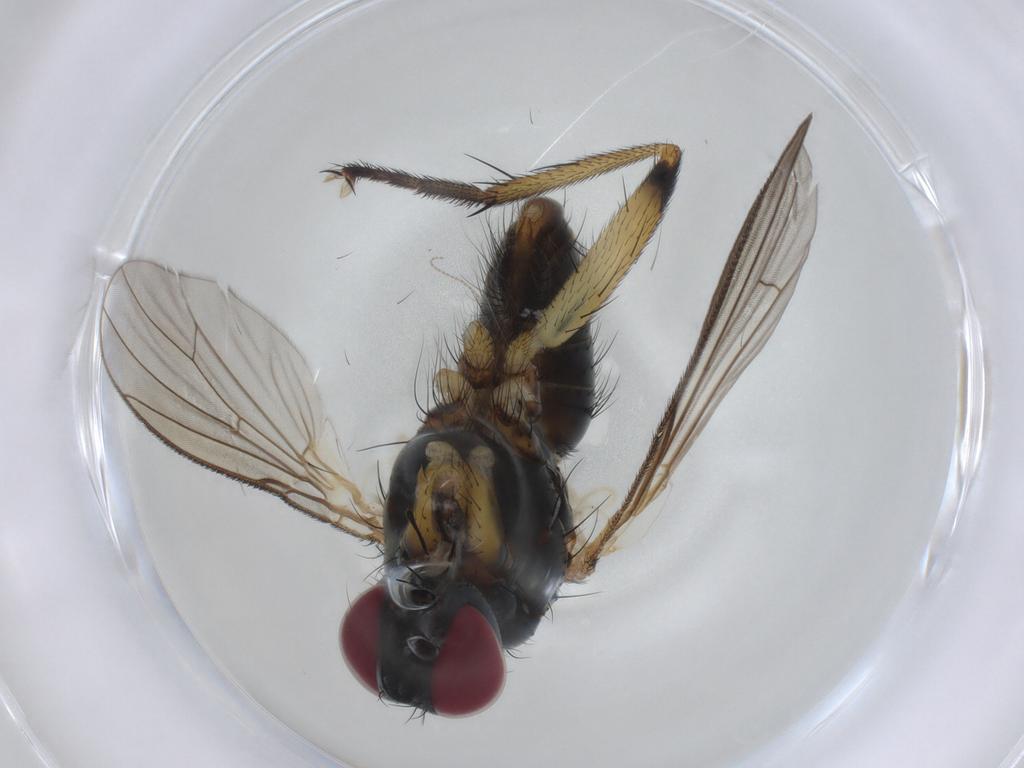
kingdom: Animalia
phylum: Arthropoda
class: Insecta
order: Diptera
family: Muscidae
